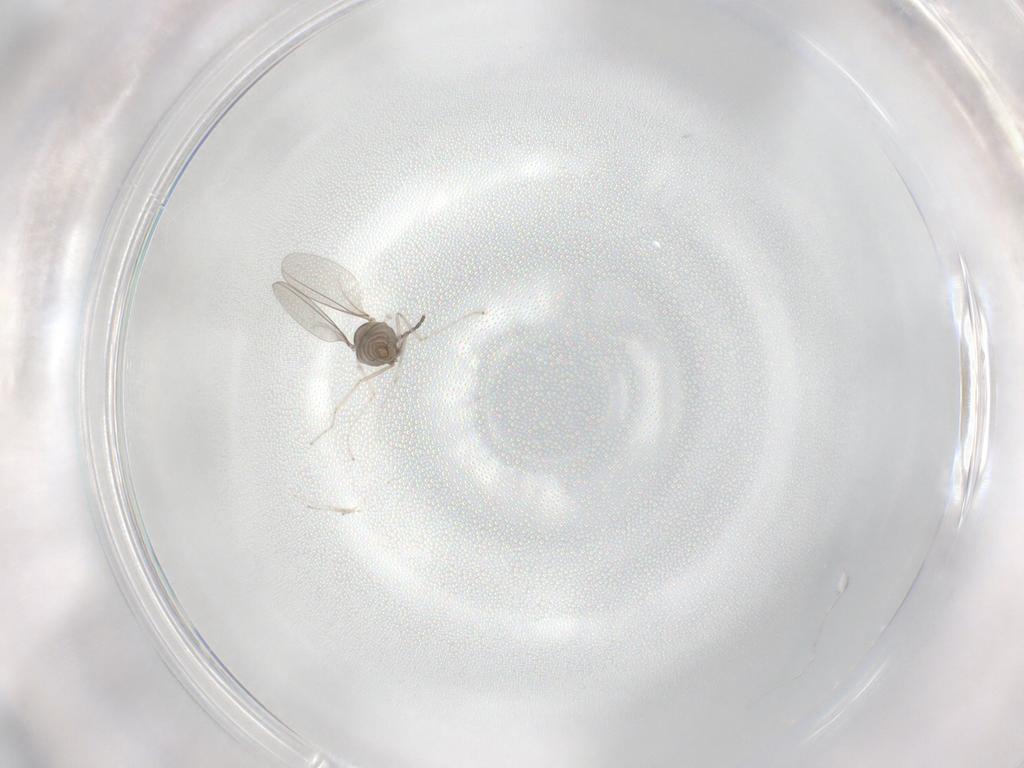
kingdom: Animalia
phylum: Arthropoda
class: Insecta
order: Diptera
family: Cecidomyiidae
